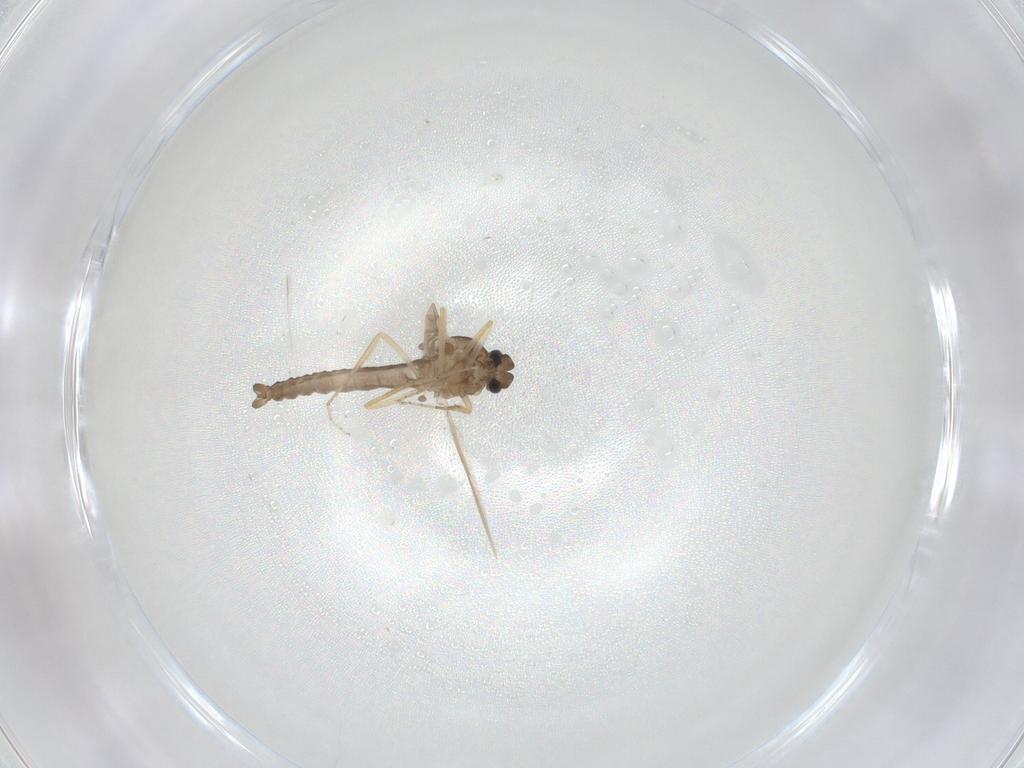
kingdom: Animalia
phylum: Arthropoda
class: Insecta
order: Diptera
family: Ceratopogonidae
